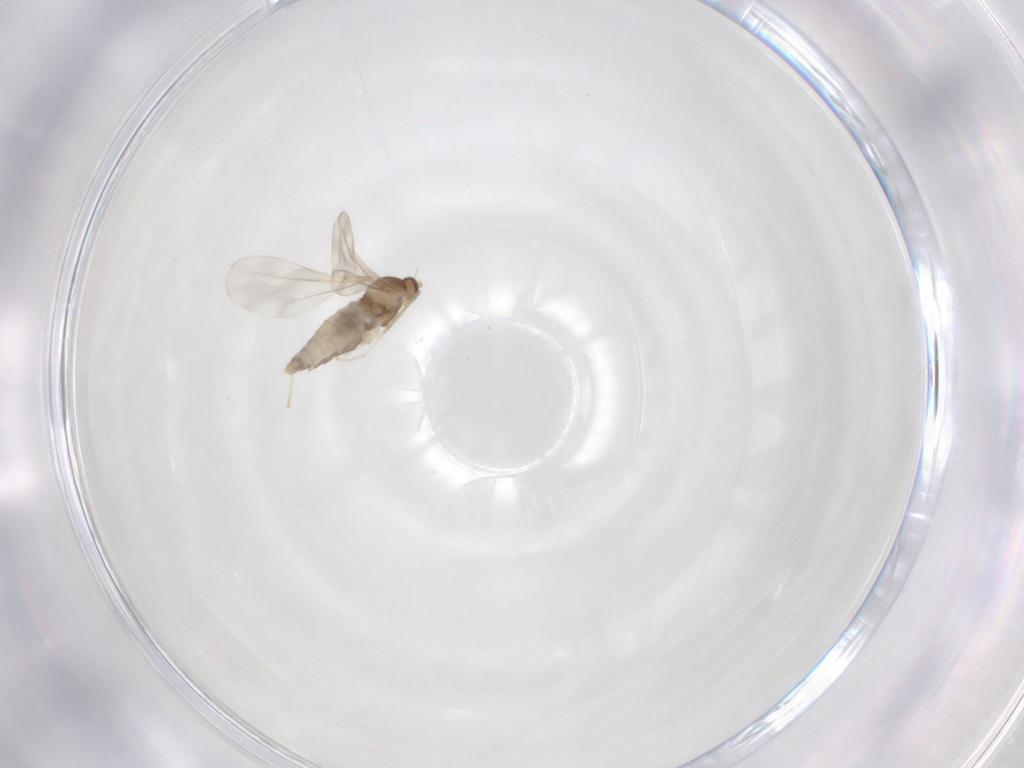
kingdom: Animalia
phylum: Arthropoda
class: Insecta
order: Diptera
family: Cecidomyiidae
